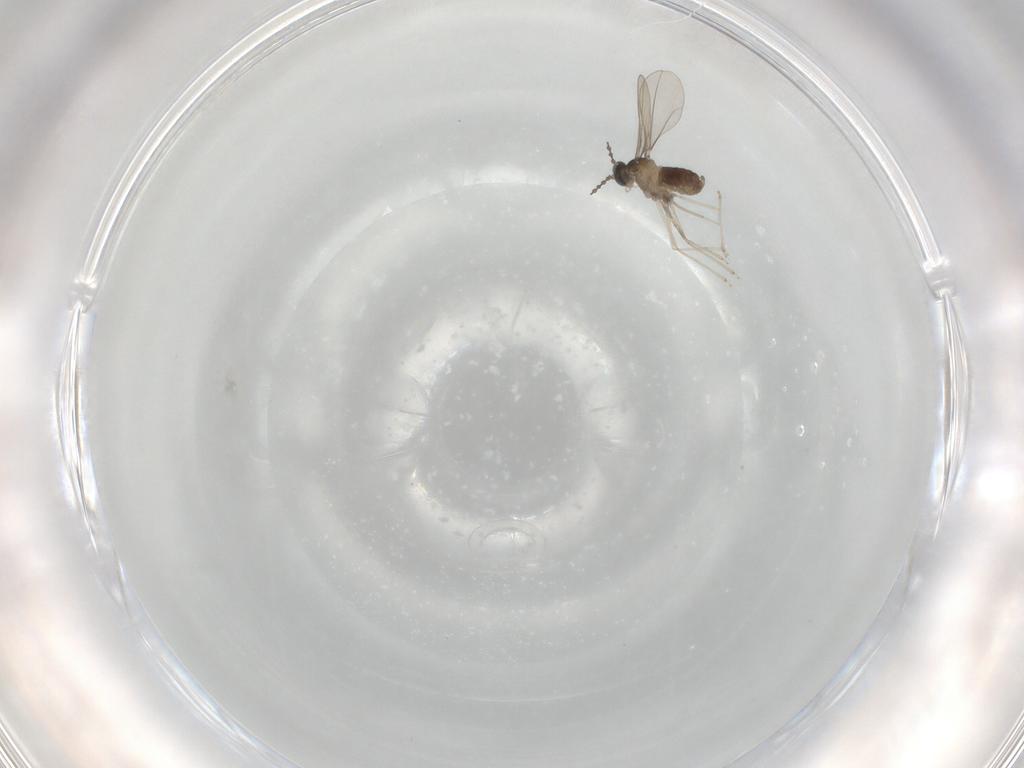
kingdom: Animalia
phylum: Arthropoda
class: Insecta
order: Diptera
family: Cecidomyiidae
